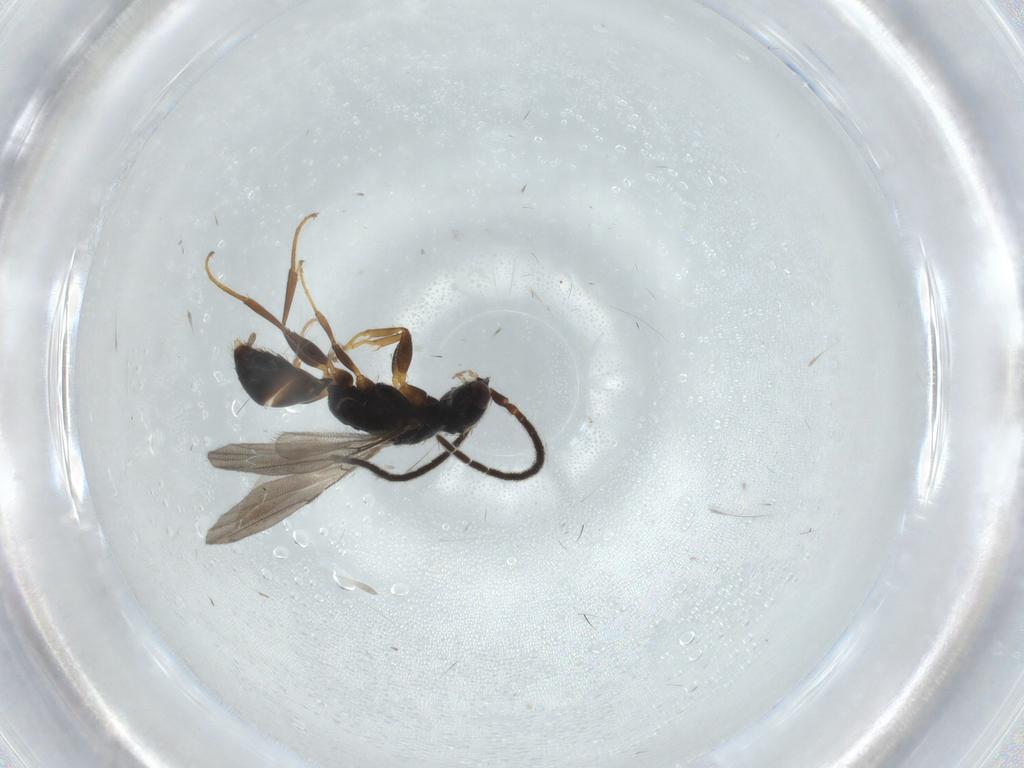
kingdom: Animalia
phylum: Arthropoda
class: Insecta
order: Hymenoptera
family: Bethylidae
